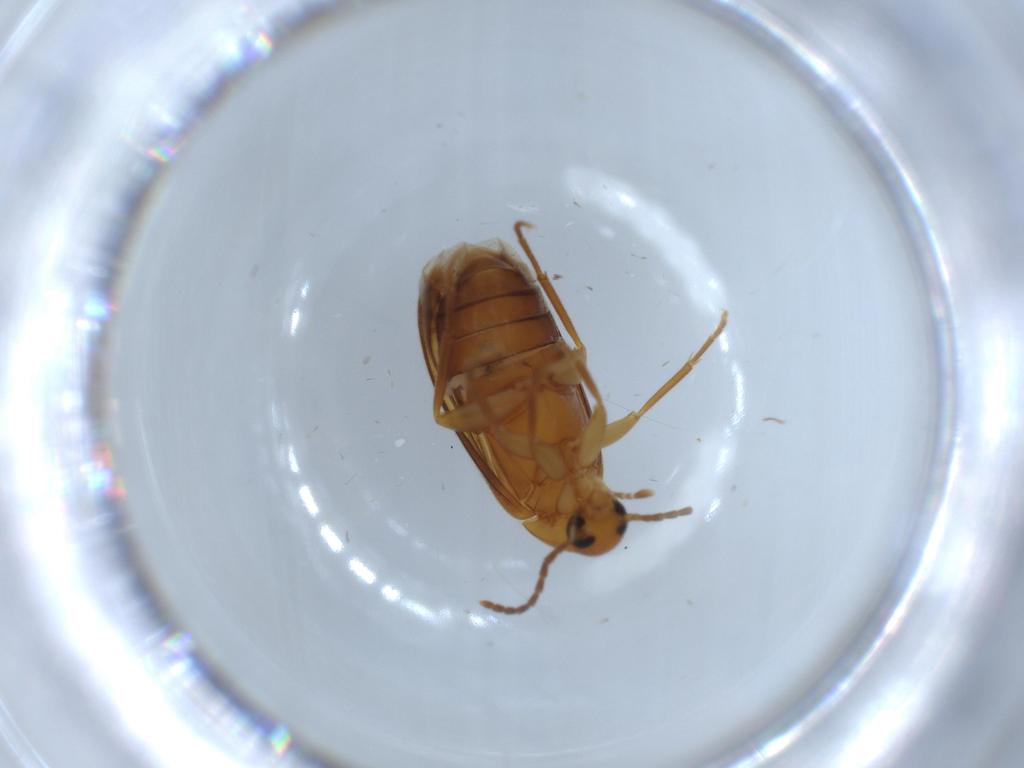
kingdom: Animalia
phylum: Arthropoda
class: Insecta
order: Coleoptera
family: Scraptiidae
